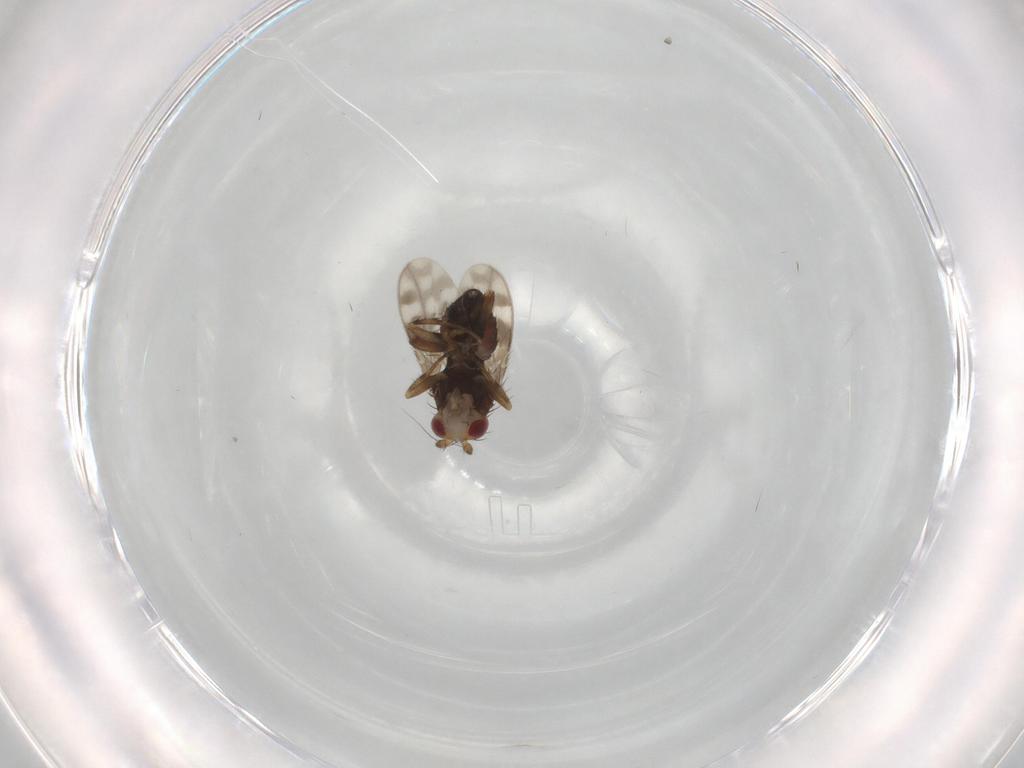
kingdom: Animalia
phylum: Arthropoda
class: Insecta
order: Diptera
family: Sphaeroceridae
